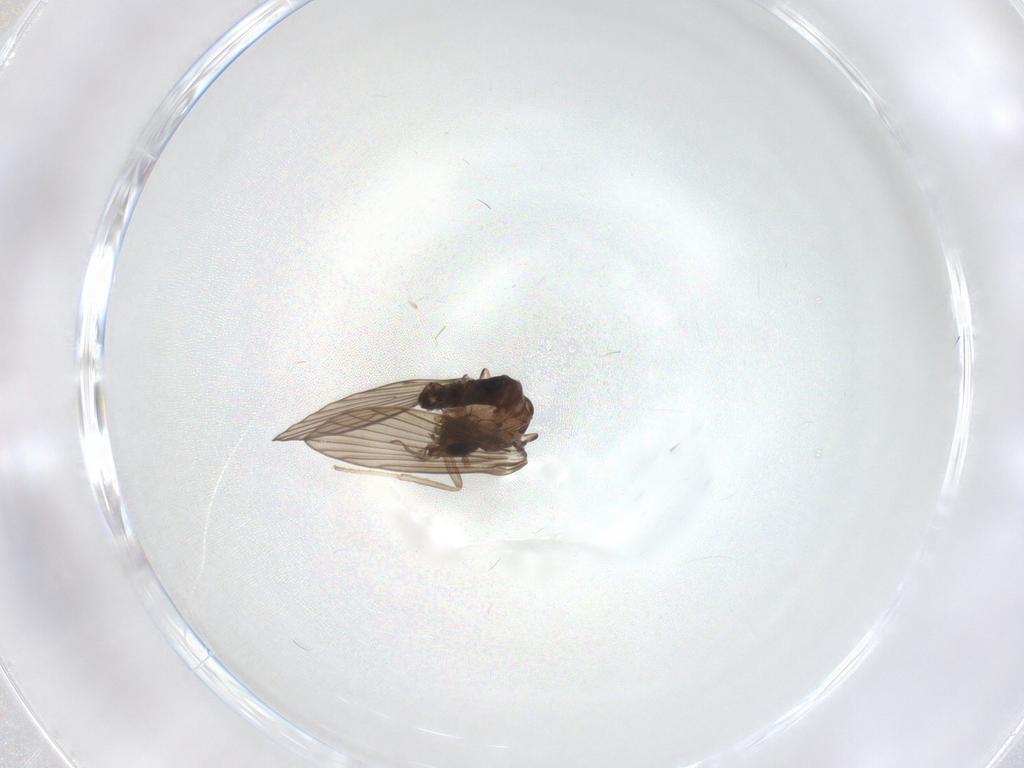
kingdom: Animalia
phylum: Arthropoda
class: Insecta
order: Diptera
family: Psychodidae
